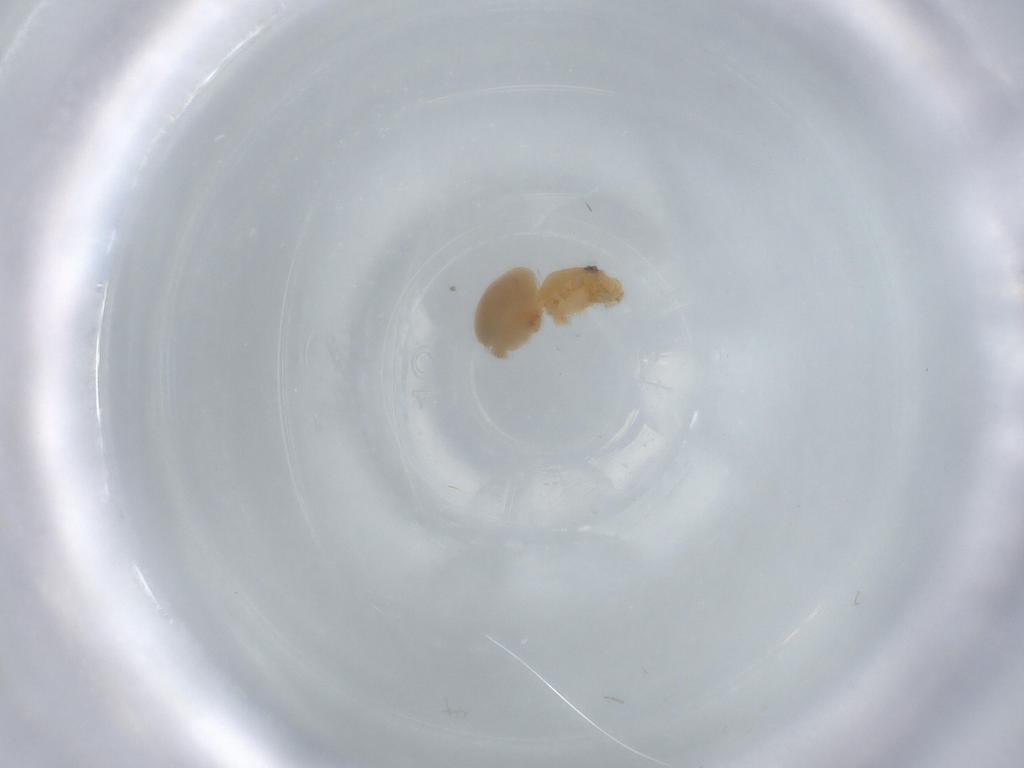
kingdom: Animalia
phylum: Arthropoda
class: Arachnida
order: Araneae
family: Oonopidae
